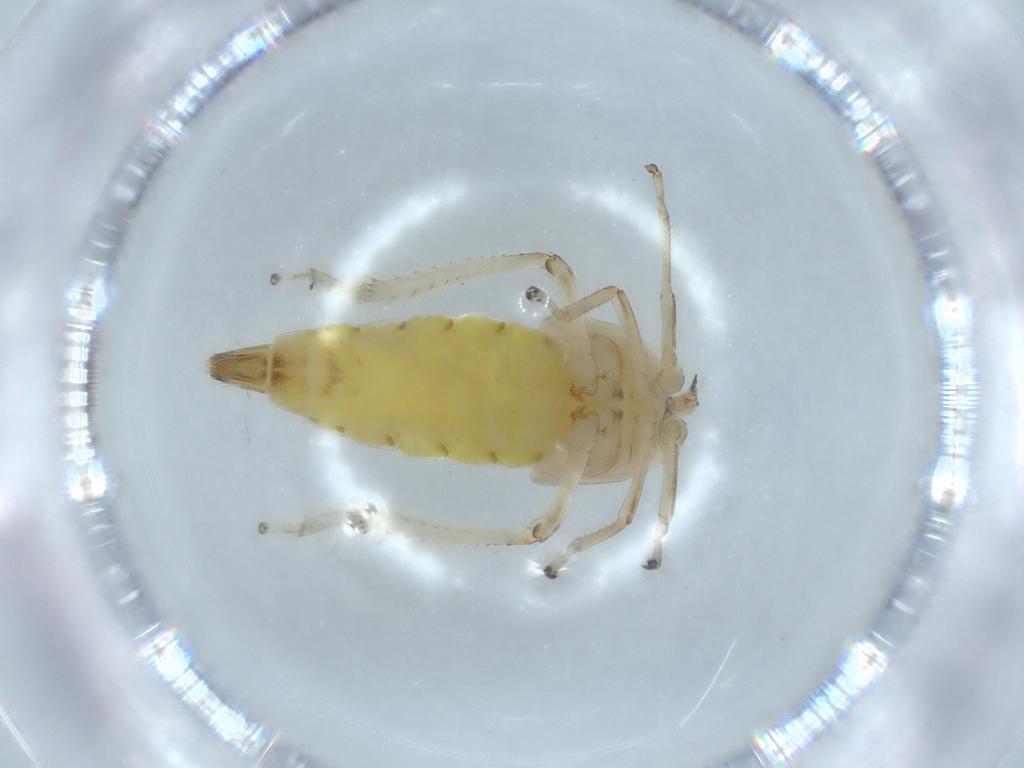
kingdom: Animalia
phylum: Arthropoda
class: Insecta
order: Hemiptera
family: Cicadellidae
